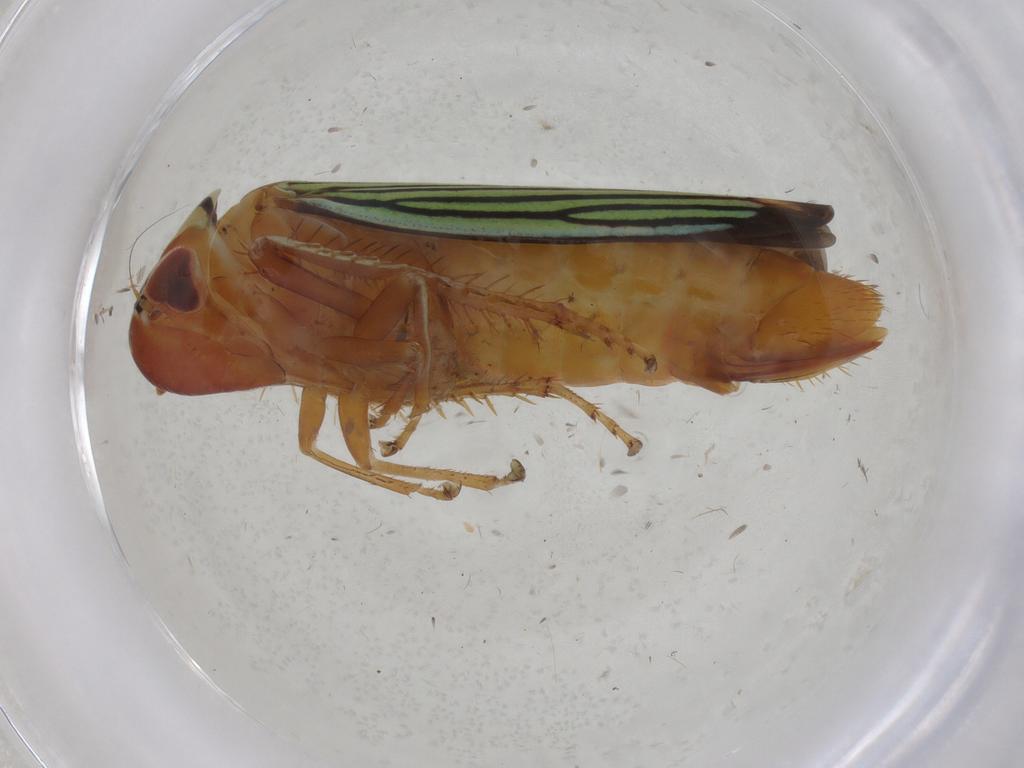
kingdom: Animalia
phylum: Arthropoda
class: Insecta
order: Hemiptera
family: Cicadellidae
